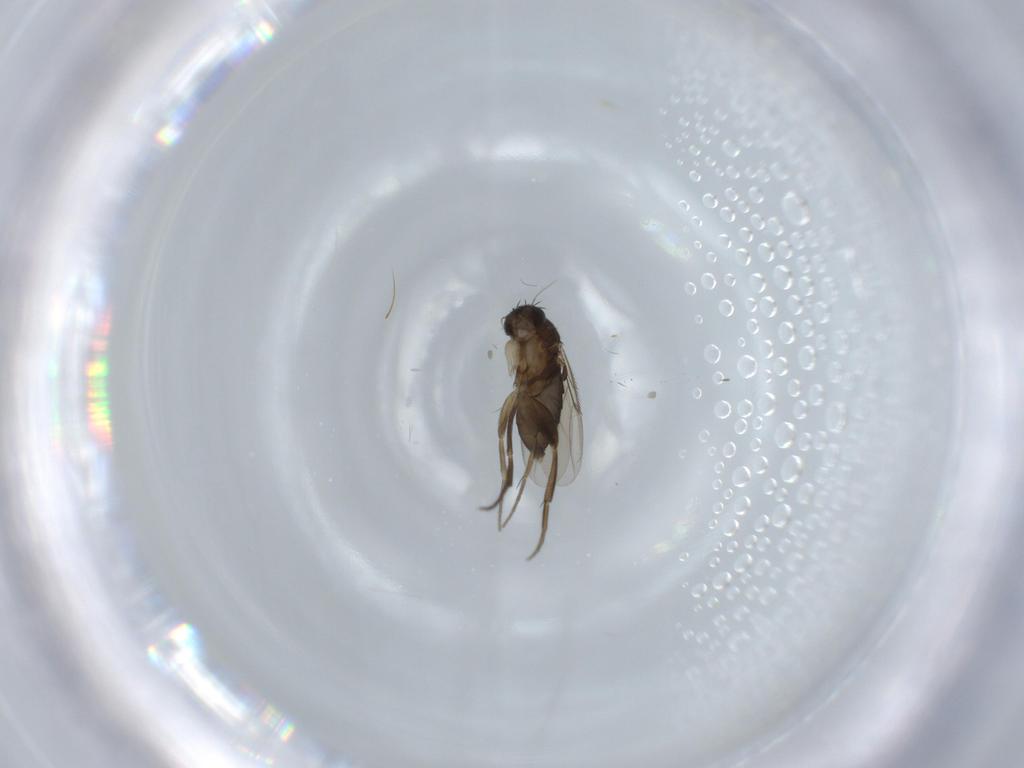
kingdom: Animalia
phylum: Arthropoda
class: Insecta
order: Diptera
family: Phoridae
